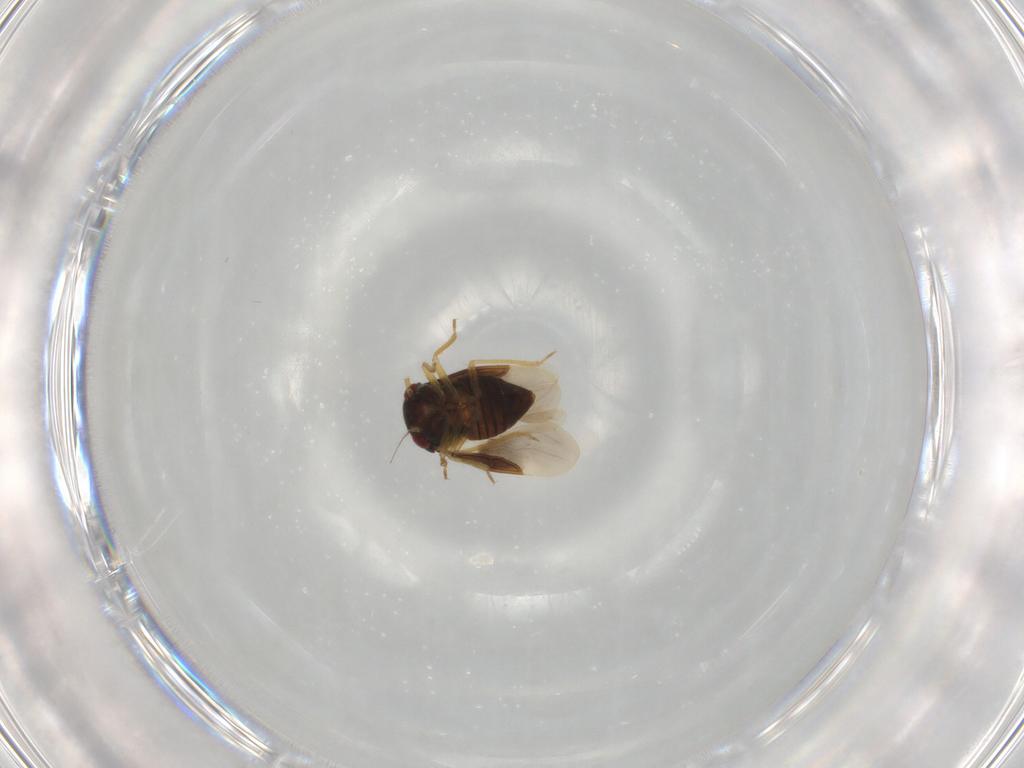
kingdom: Animalia
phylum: Arthropoda
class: Insecta
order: Hemiptera
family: Schizopteridae
